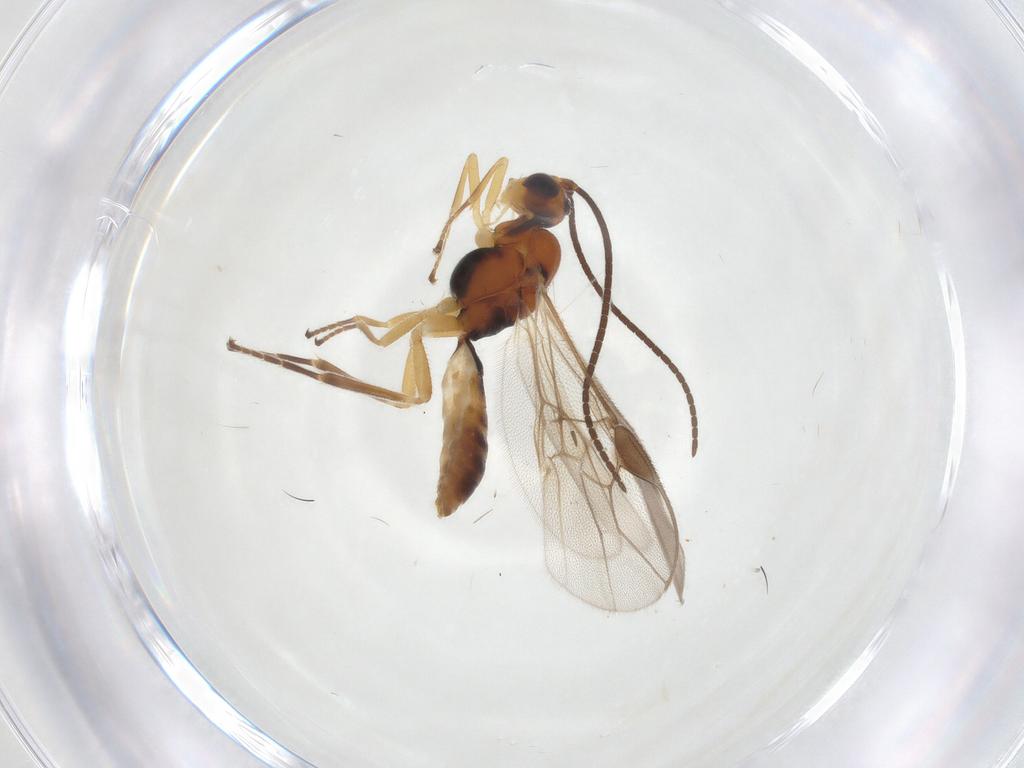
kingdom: Animalia
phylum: Arthropoda
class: Insecta
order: Hymenoptera
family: Braconidae
